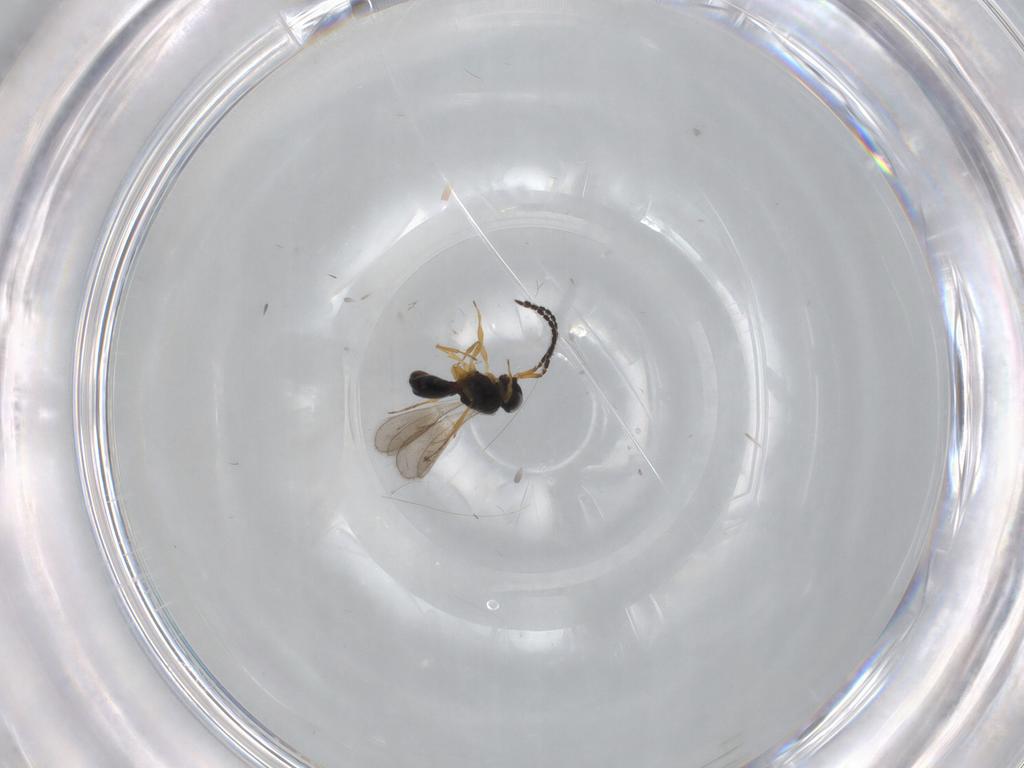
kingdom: Animalia
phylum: Arthropoda
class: Insecta
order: Hymenoptera
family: Scelionidae
